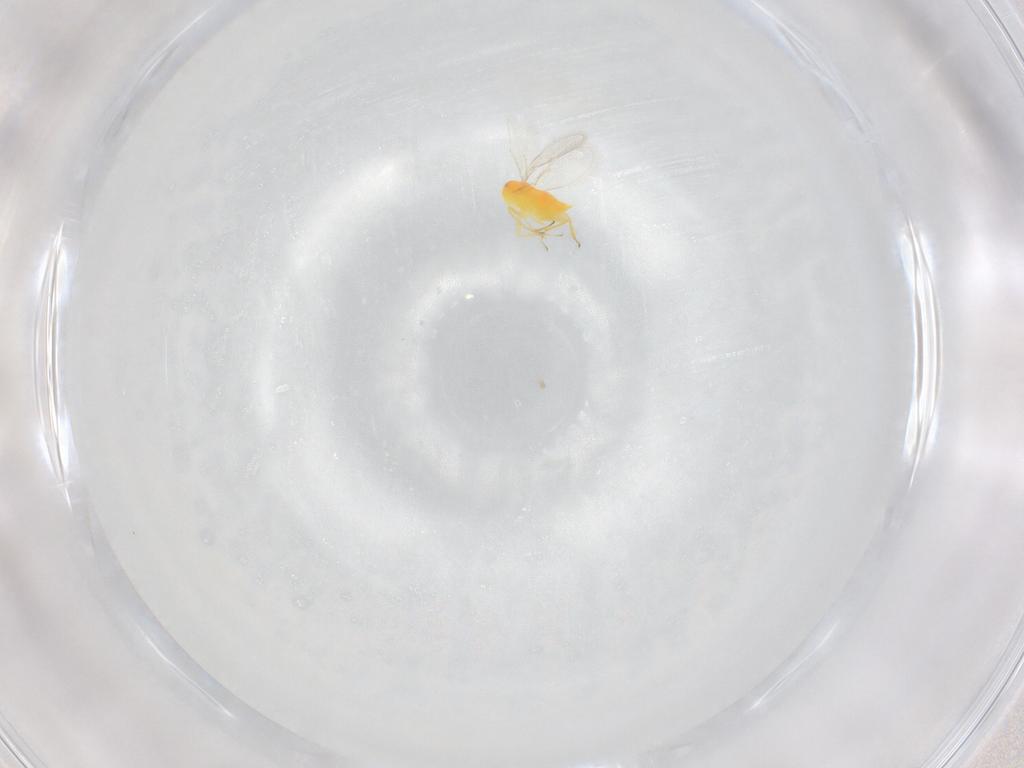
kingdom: Animalia
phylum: Arthropoda
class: Insecta
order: Hymenoptera
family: Aphelinidae
